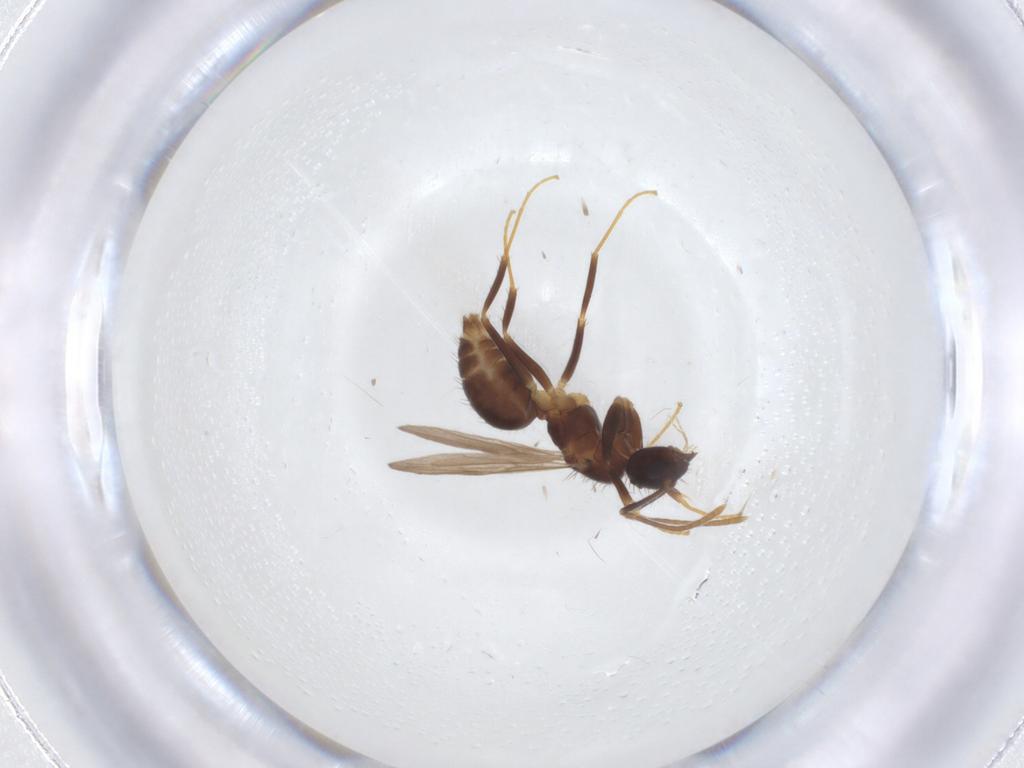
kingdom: Animalia
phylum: Arthropoda
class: Insecta
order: Hymenoptera
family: Formicidae
